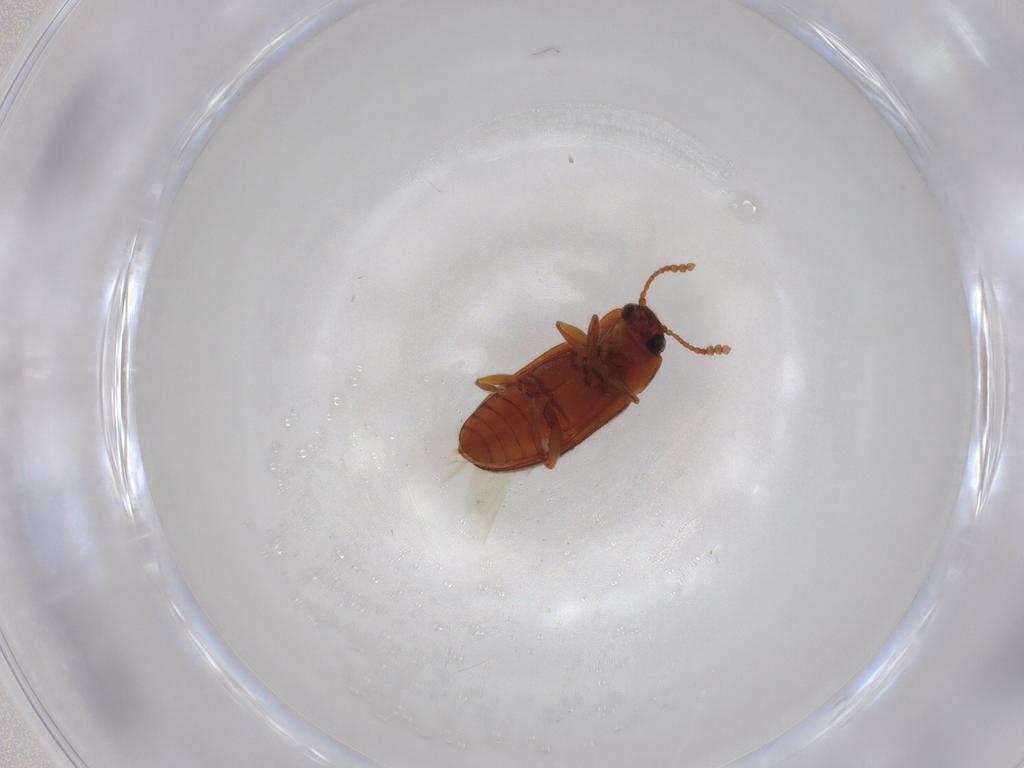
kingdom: Animalia
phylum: Arthropoda
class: Insecta
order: Coleoptera
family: Erotylidae
